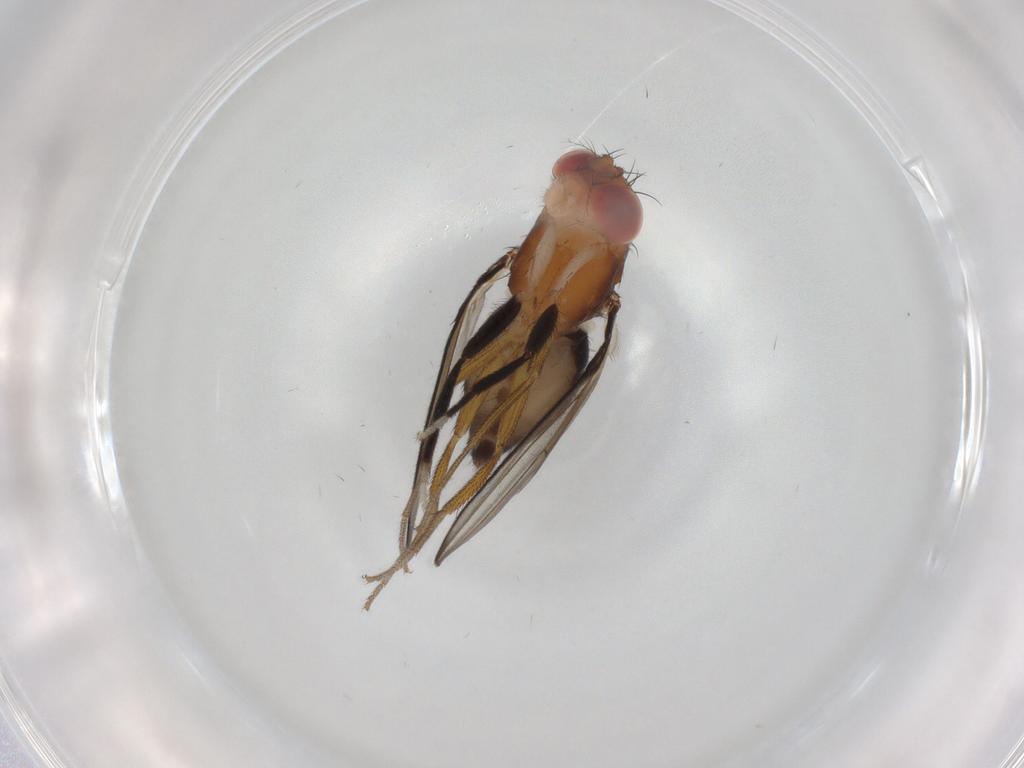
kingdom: Animalia
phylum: Arthropoda
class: Insecta
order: Diptera
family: Drosophilidae
